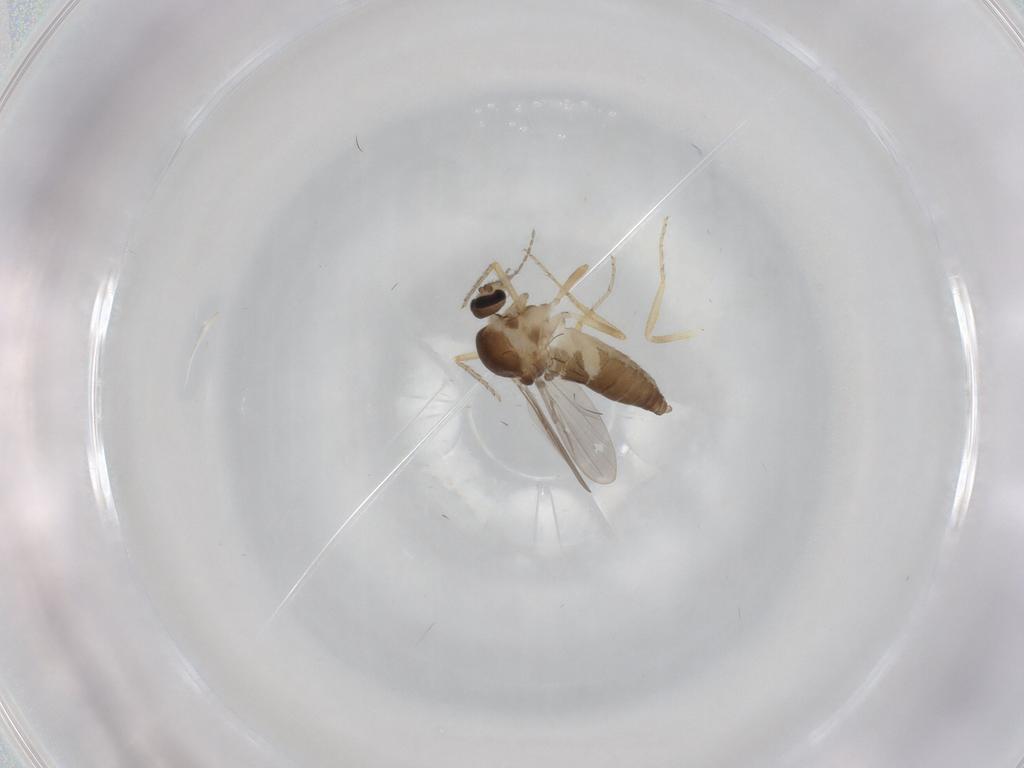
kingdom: Animalia
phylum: Arthropoda
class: Insecta
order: Diptera
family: Ceratopogonidae
